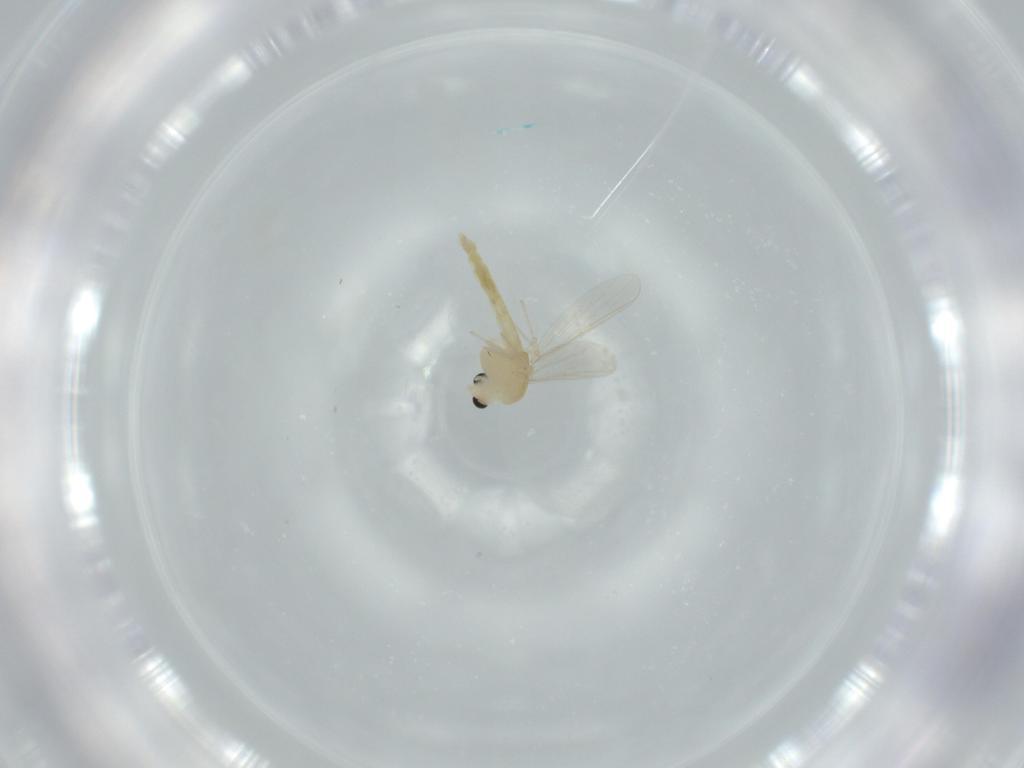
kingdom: Animalia
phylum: Arthropoda
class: Insecta
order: Diptera
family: Chironomidae
